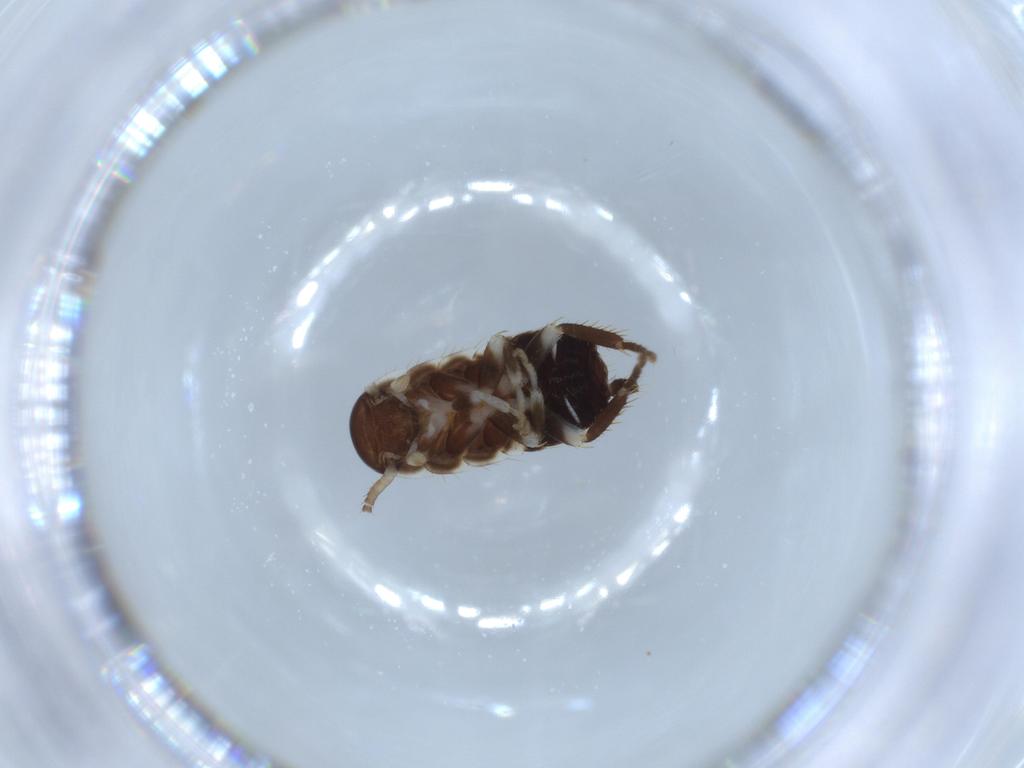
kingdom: Animalia
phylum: Arthropoda
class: Insecta
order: Blattodea
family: Ectobiidae
